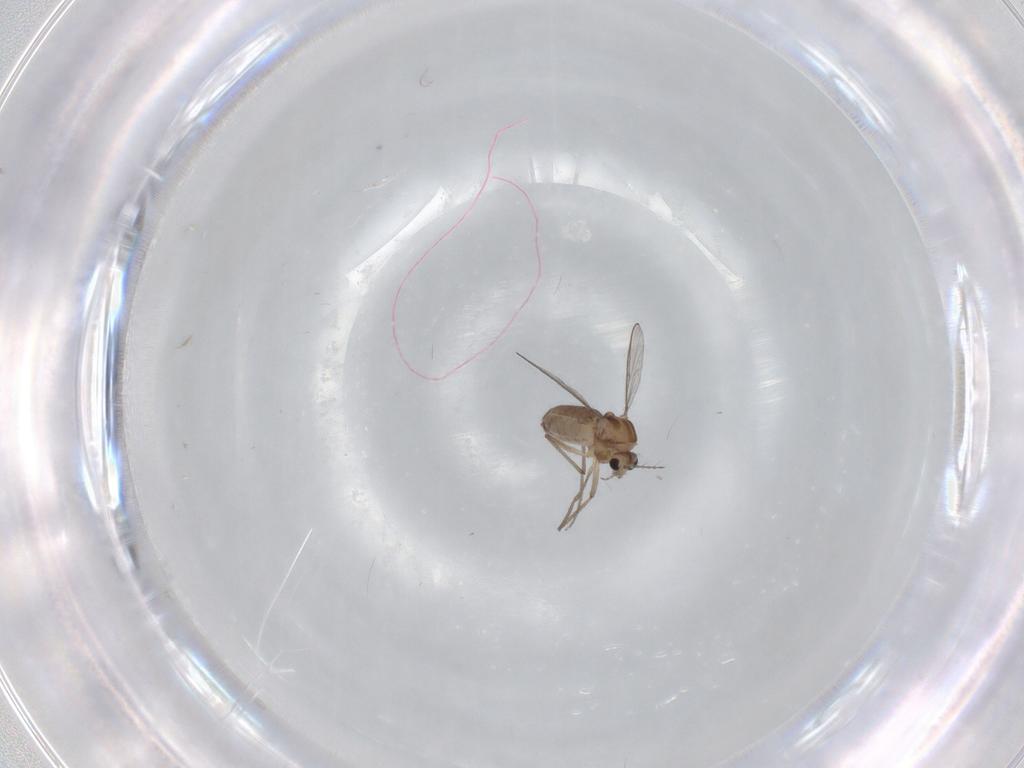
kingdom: Animalia
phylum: Arthropoda
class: Insecta
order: Diptera
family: Chironomidae
